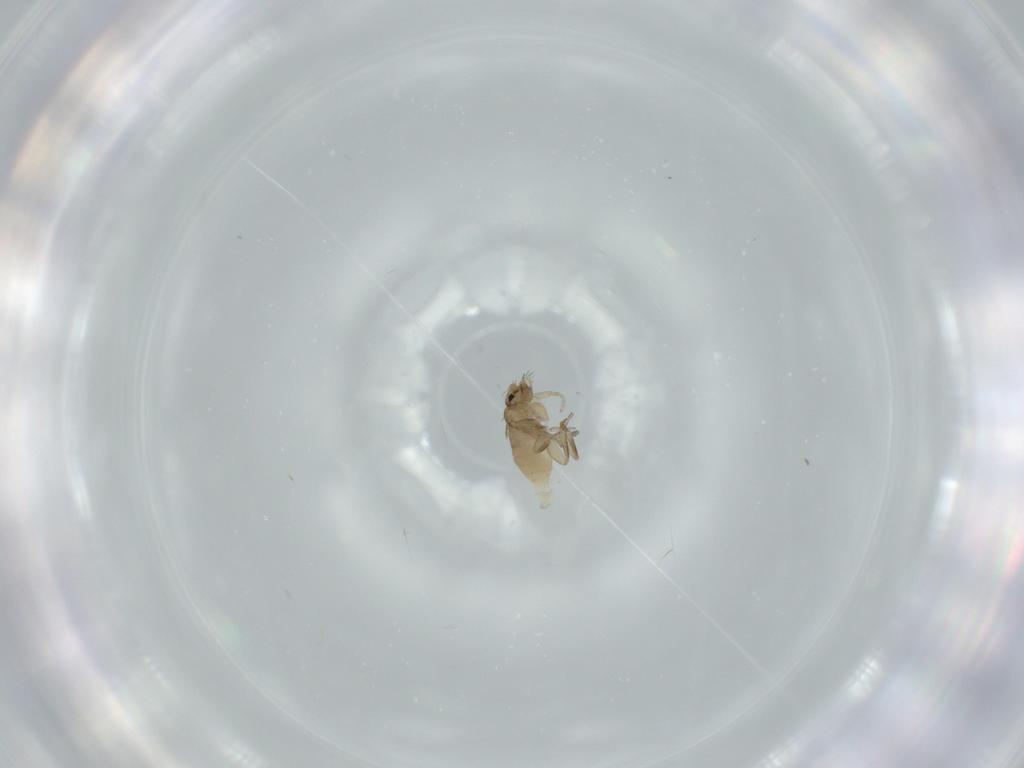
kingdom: Animalia
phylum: Arthropoda
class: Insecta
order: Diptera
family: Phoridae
